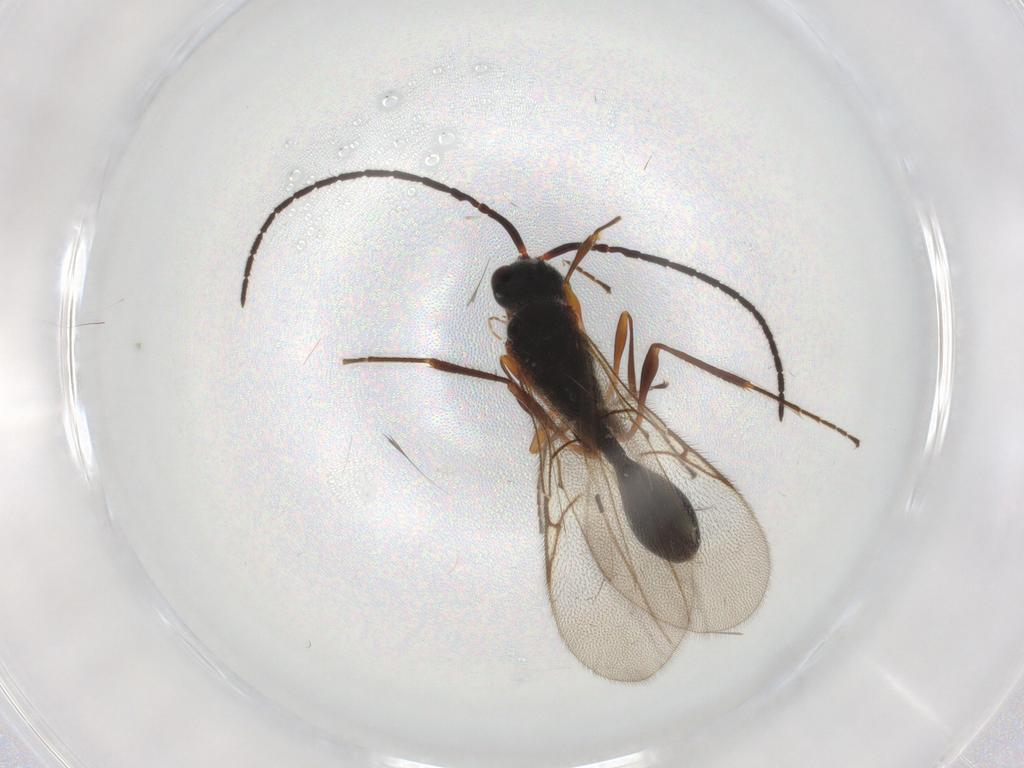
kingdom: Animalia
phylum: Arthropoda
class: Insecta
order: Hymenoptera
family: Diapriidae
